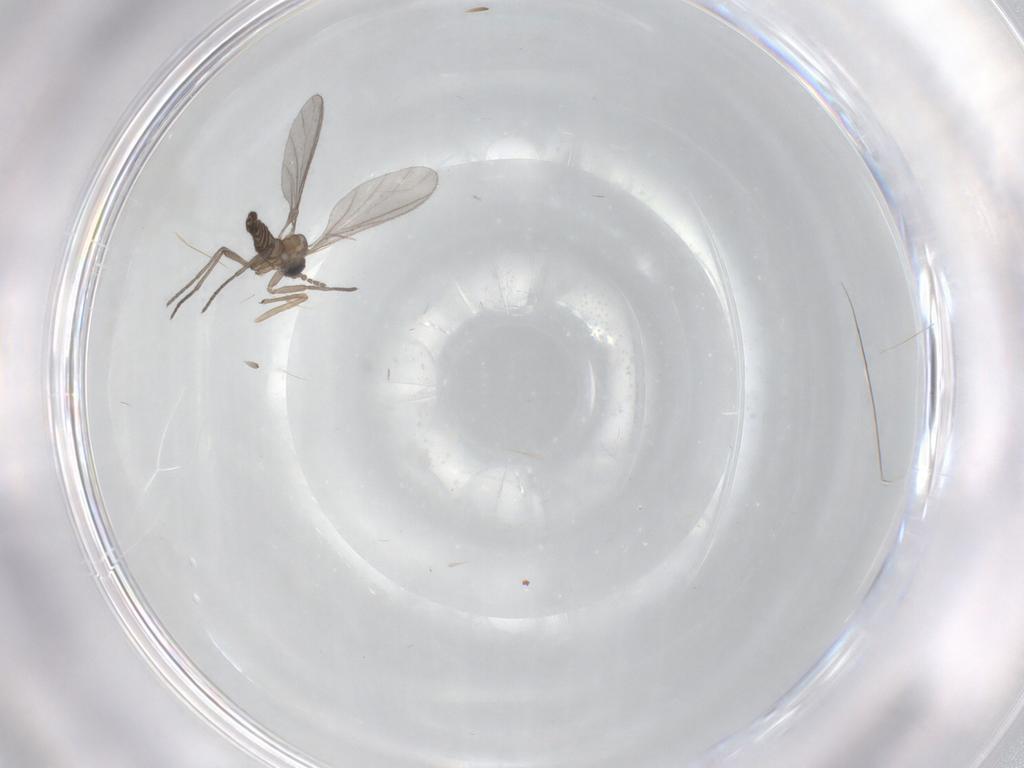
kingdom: Animalia
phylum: Arthropoda
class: Insecta
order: Diptera
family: Sciaridae
